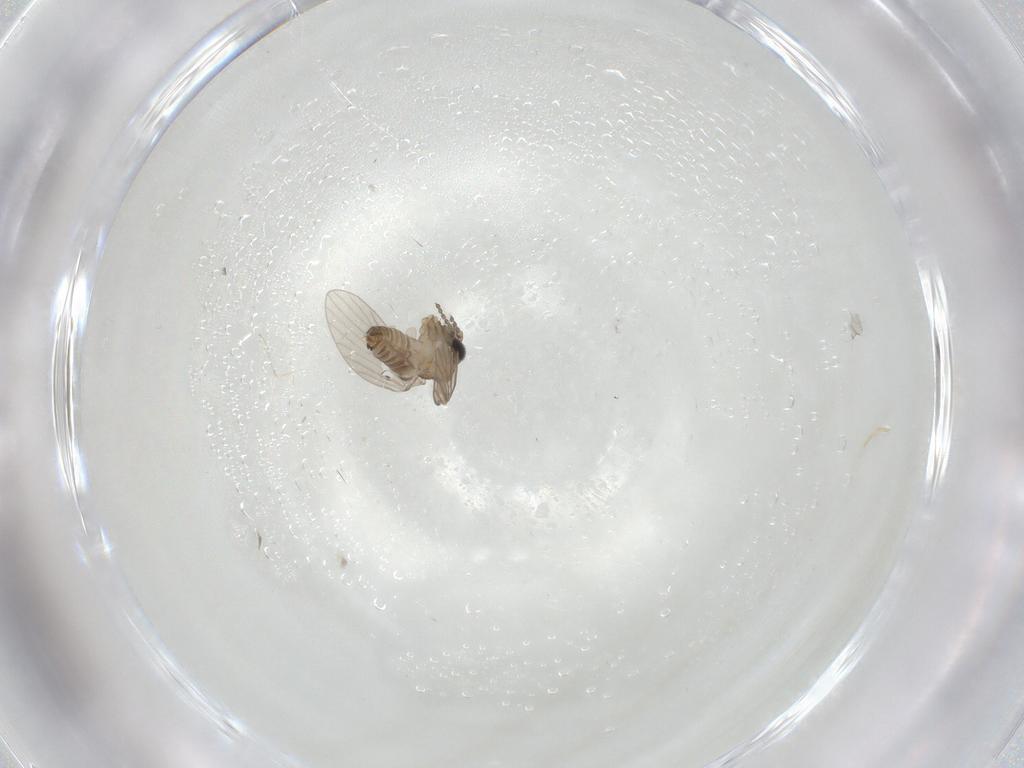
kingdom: Animalia
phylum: Arthropoda
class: Insecta
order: Diptera
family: Psychodidae
